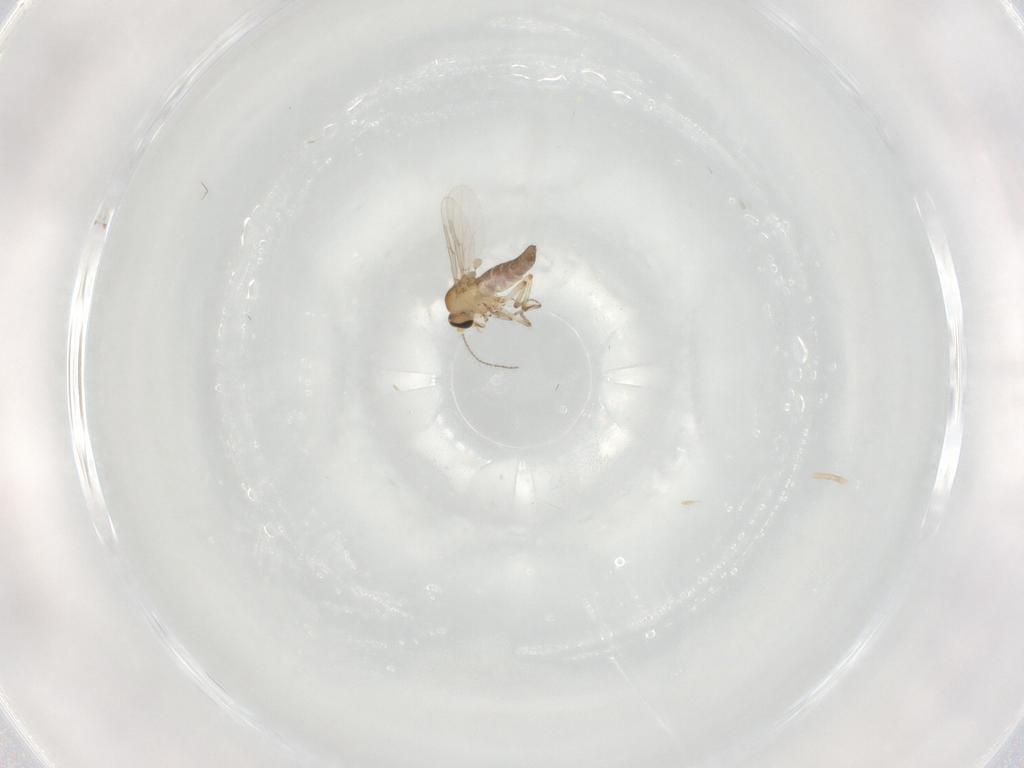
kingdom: Animalia
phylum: Arthropoda
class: Insecta
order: Diptera
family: Ceratopogonidae
